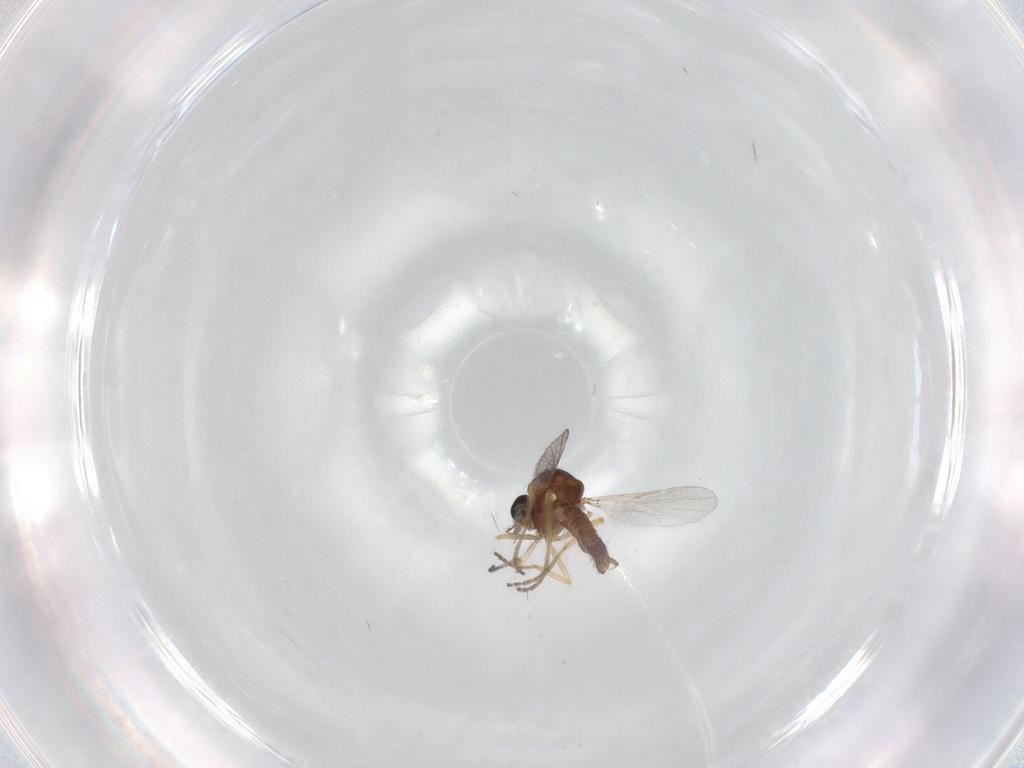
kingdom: Animalia
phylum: Arthropoda
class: Insecta
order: Diptera
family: Ceratopogonidae
